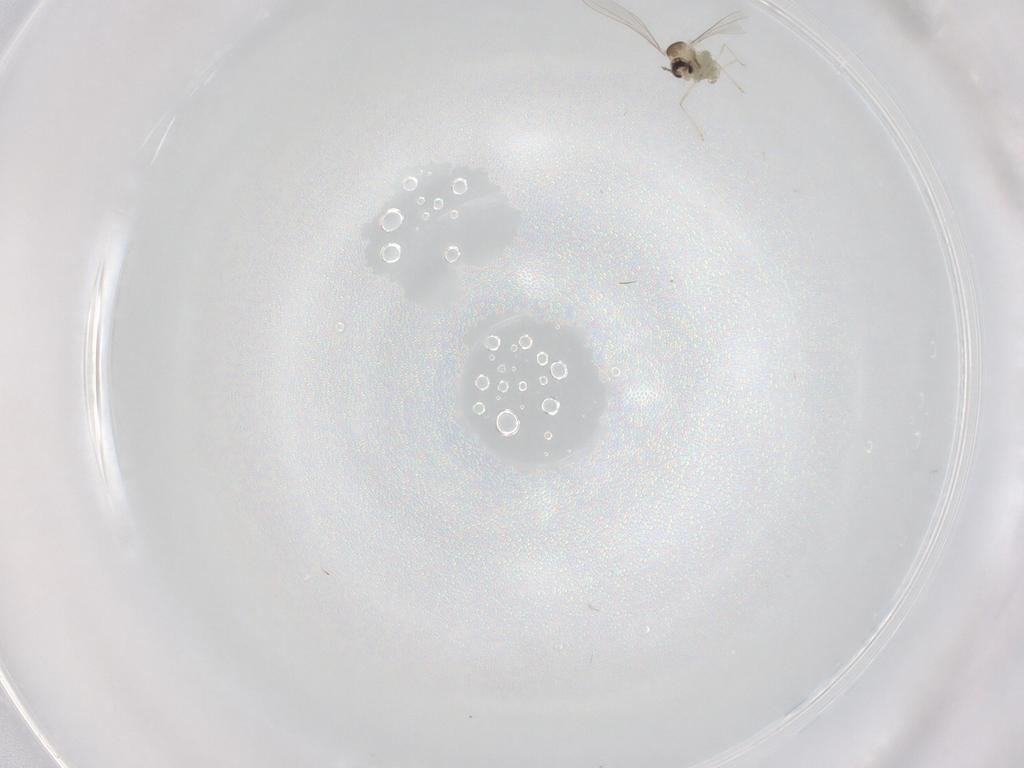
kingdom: Animalia
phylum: Arthropoda
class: Insecta
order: Diptera
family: Cecidomyiidae
